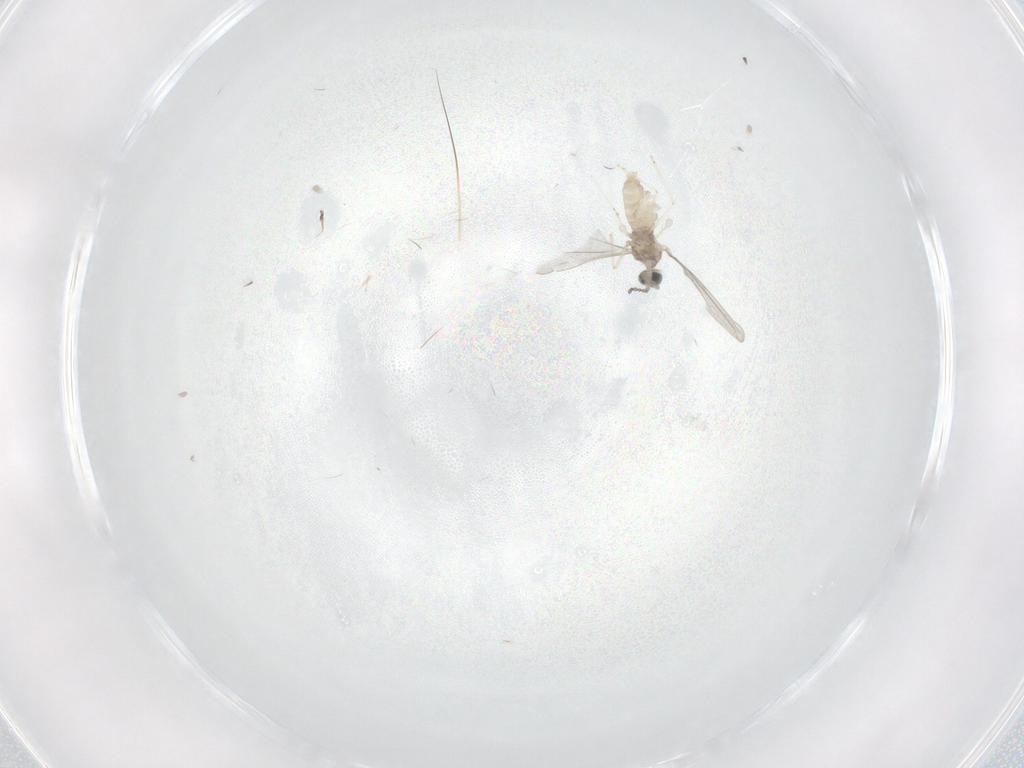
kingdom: Animalia
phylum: Arthropoda
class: Insecta
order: Diptera
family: Cecidomyiidae
